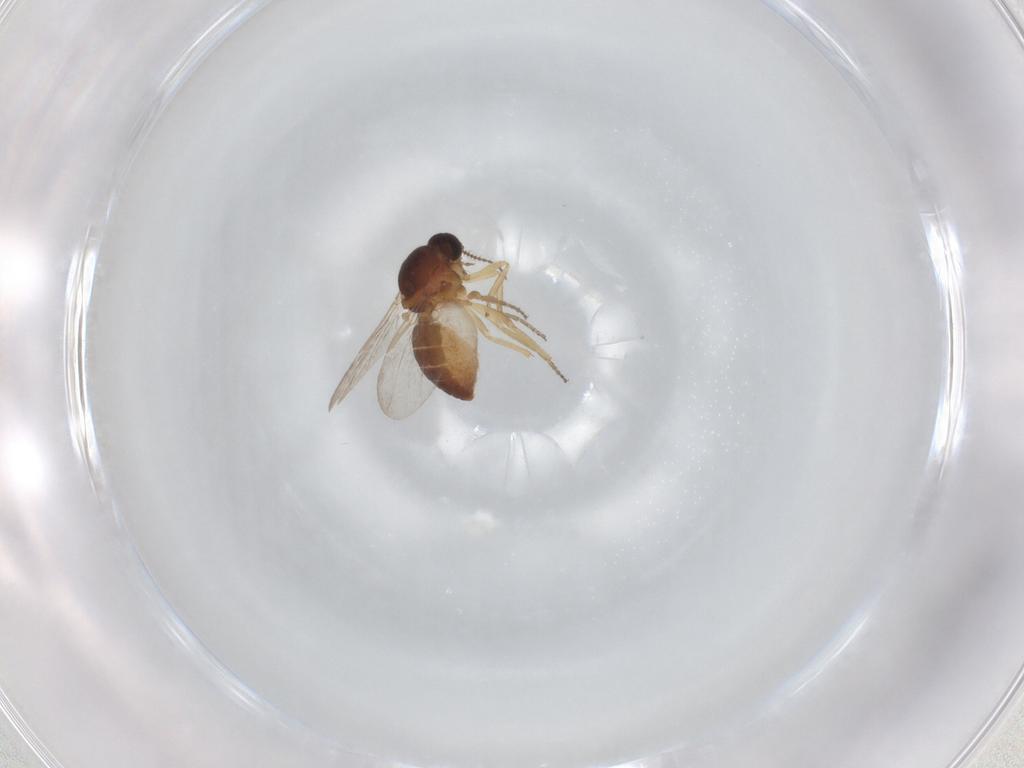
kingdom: Animalia
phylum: Arthropoda
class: Insecta
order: Diptera
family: Ceratopogonidae
